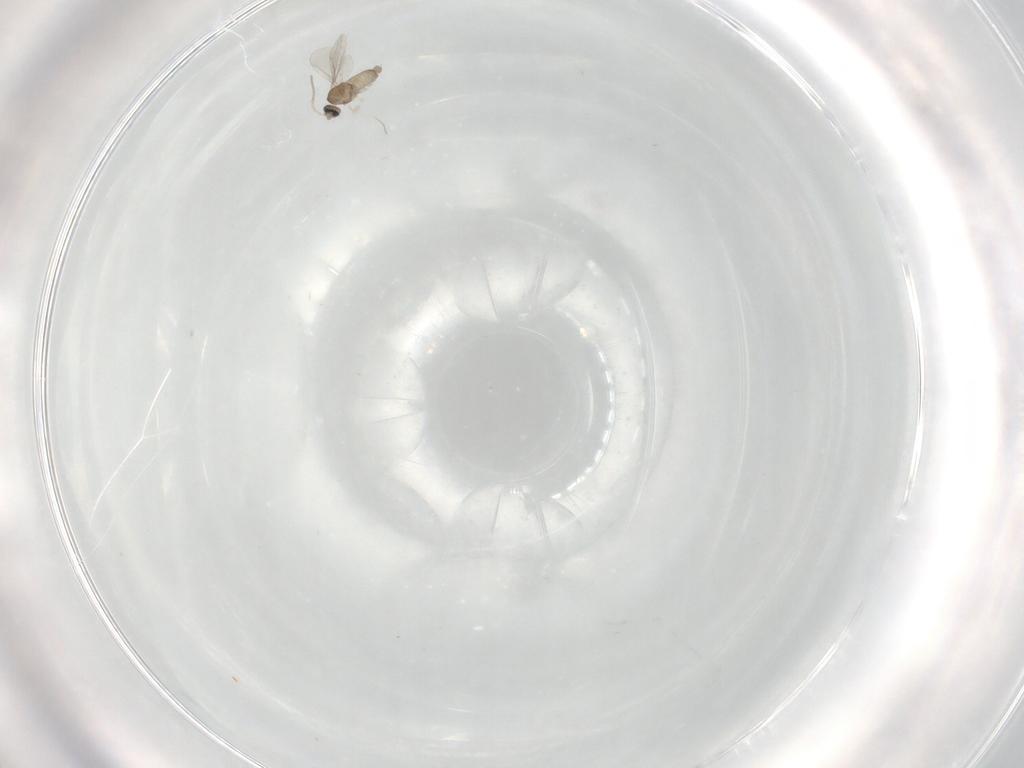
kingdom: Animalia
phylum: Arthropoda
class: Insecta
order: Diptera
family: Cecidomyiidae
